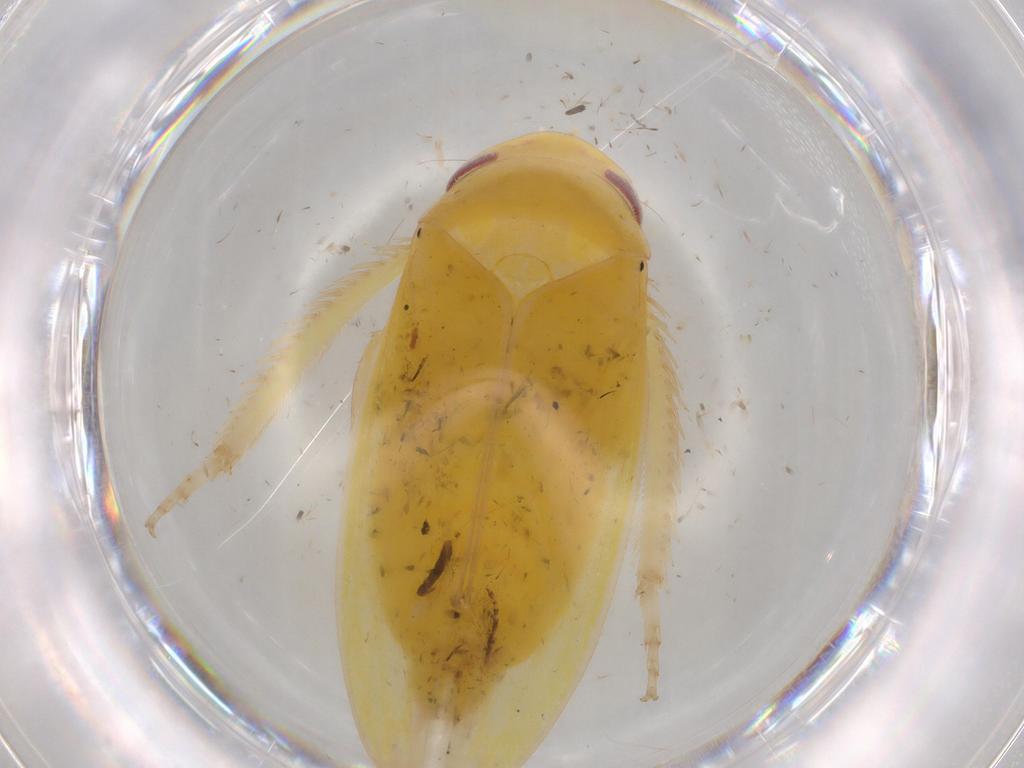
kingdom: Animalia
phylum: Arthropoda
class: Insecta
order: Hemiptera
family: Cicadellidae
